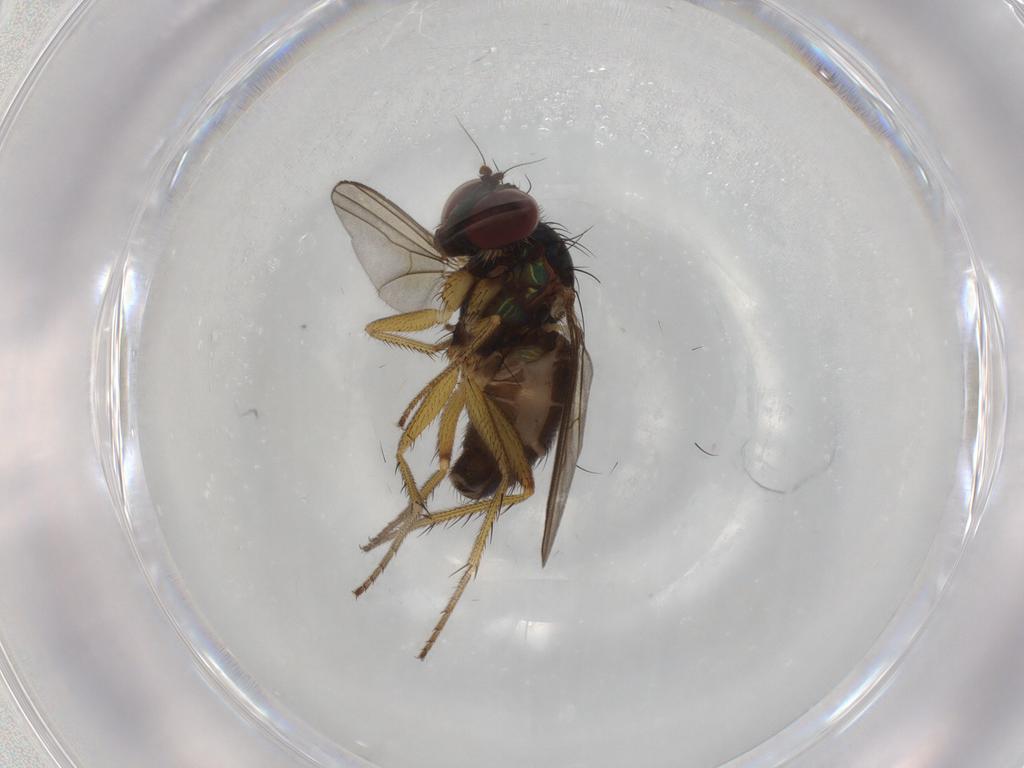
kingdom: Animalia
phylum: Arthropoda
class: Insecta
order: Diptera
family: Dolichopodidae
